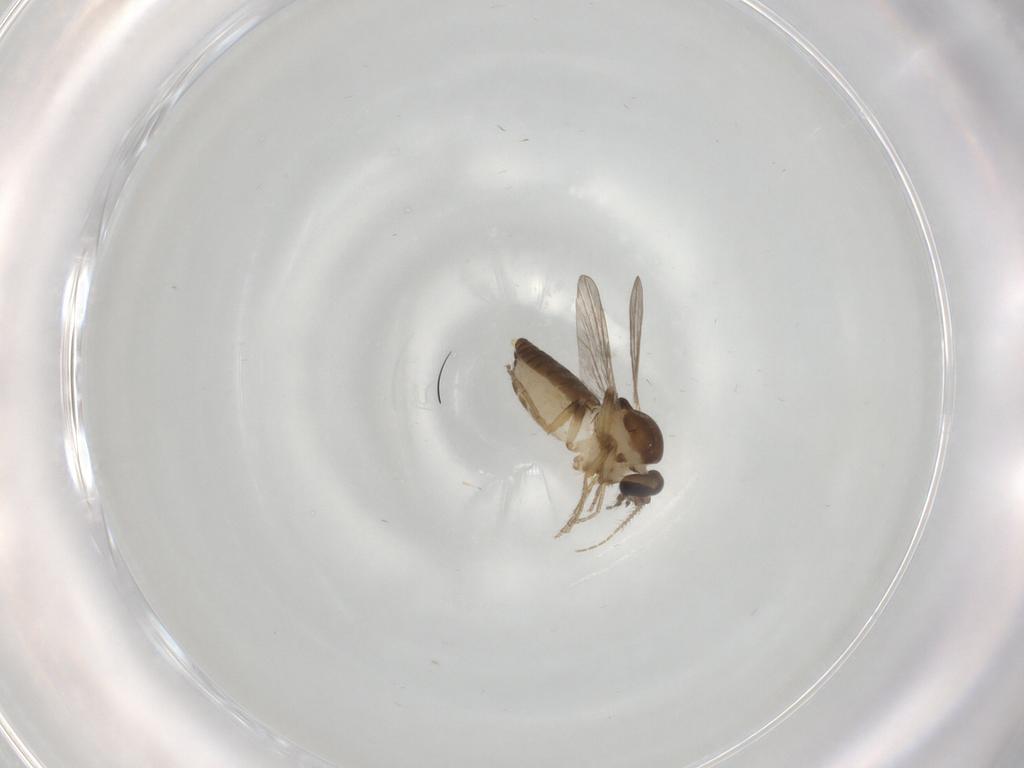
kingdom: Animalia
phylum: Arthropoda
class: Insecta
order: Diptera
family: Ceratopogonidae
